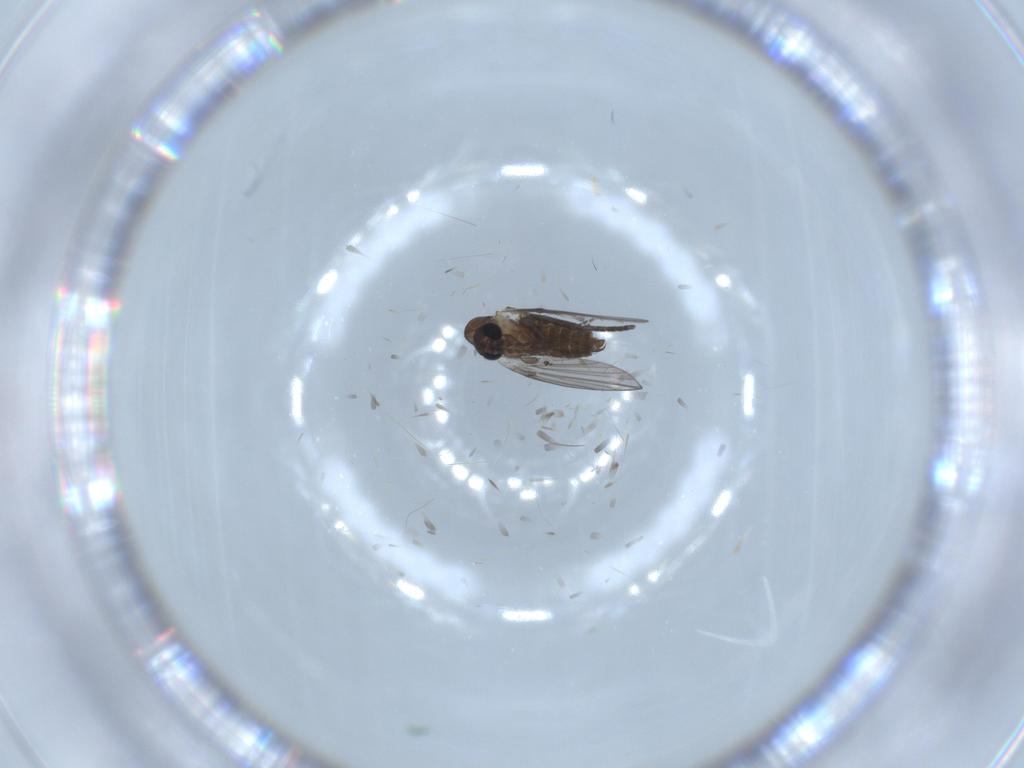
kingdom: Animalia
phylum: Arthropoda
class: Insecta
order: Diptera
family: Psychodidae
